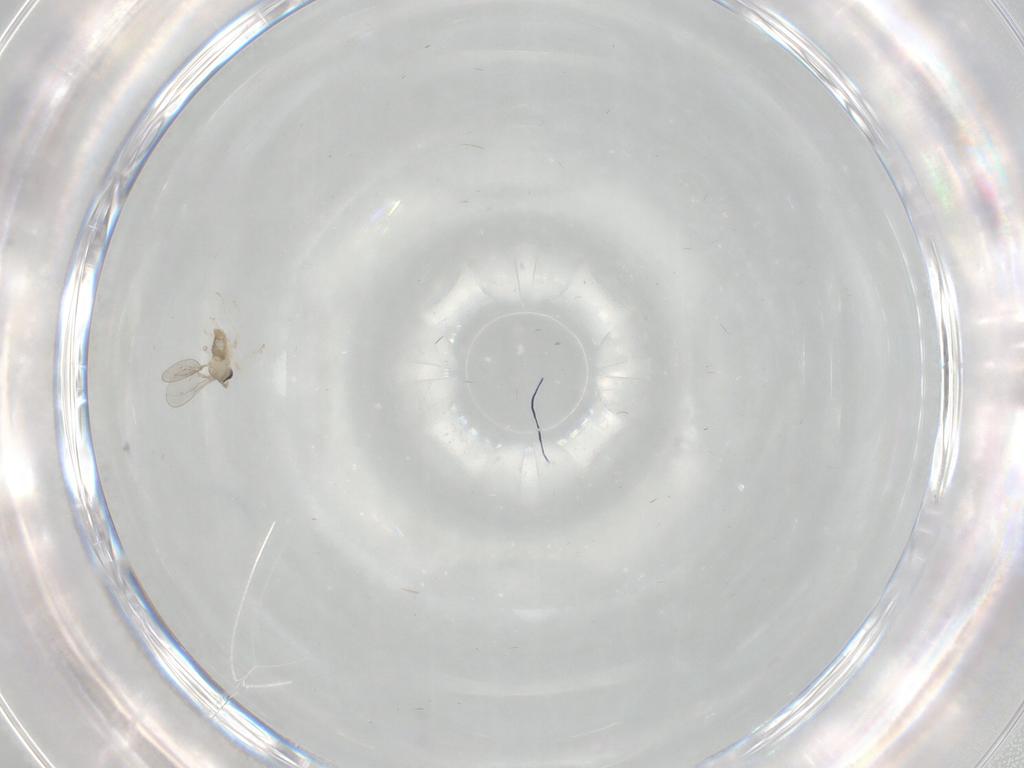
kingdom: Animalia
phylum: Arthropoda
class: Insecta
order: Diptera
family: Cecidomyiidae
